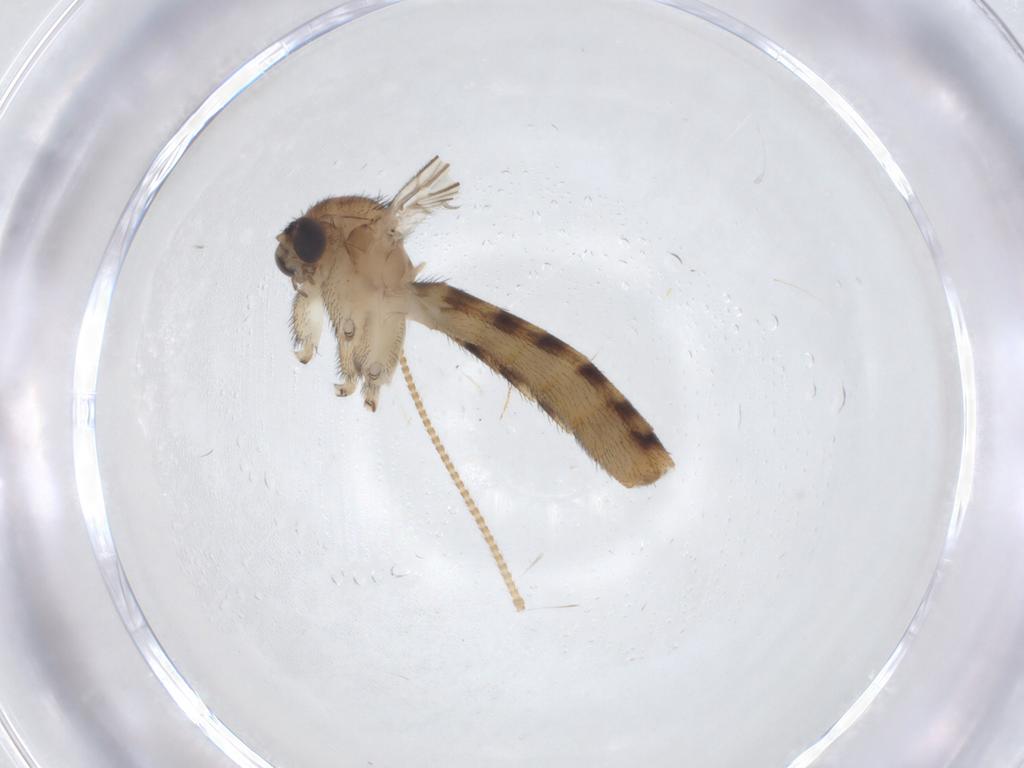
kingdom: Animalia
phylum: Arthropoda
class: Insecta
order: Diptera
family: Keroplatidae
